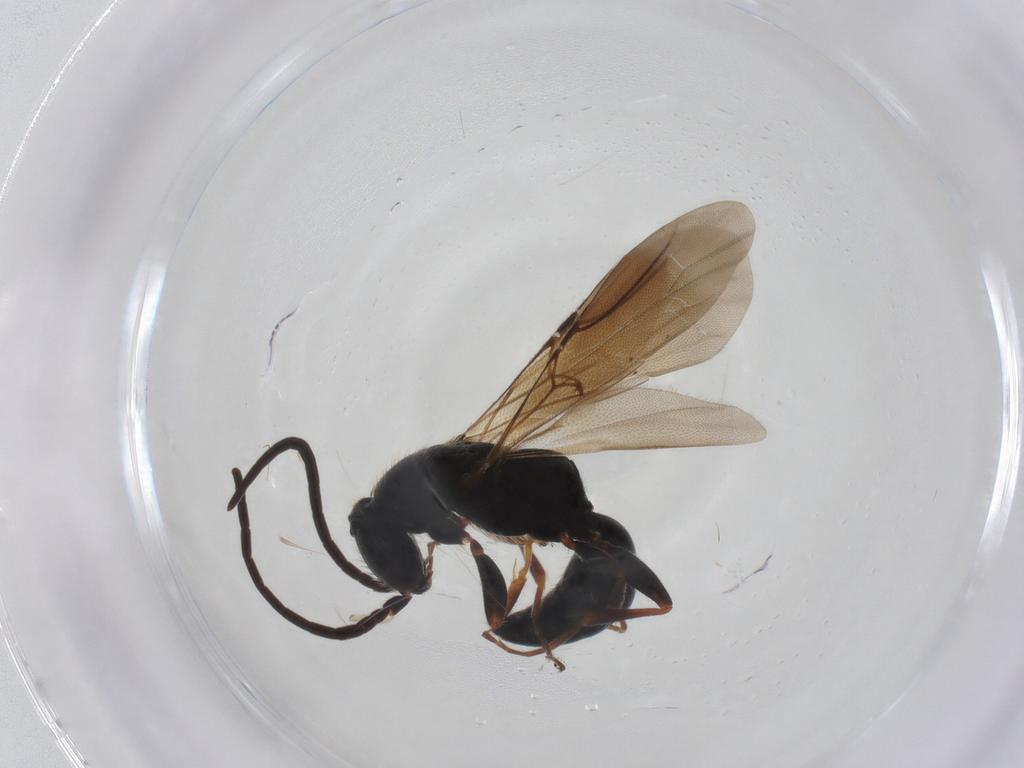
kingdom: Animalia
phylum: Arthropoda
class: Insecta
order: Hymenoptera
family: Bethylidae
